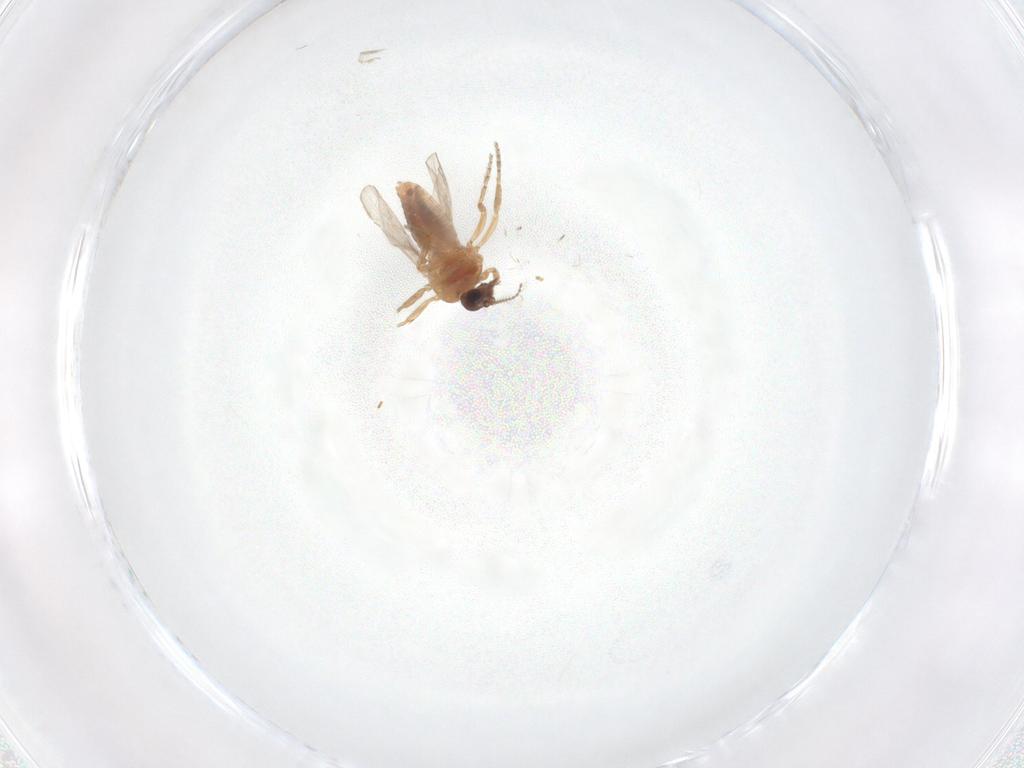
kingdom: Animalia
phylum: Arthropoda
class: Insecta
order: Diptera
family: Chironomidae
